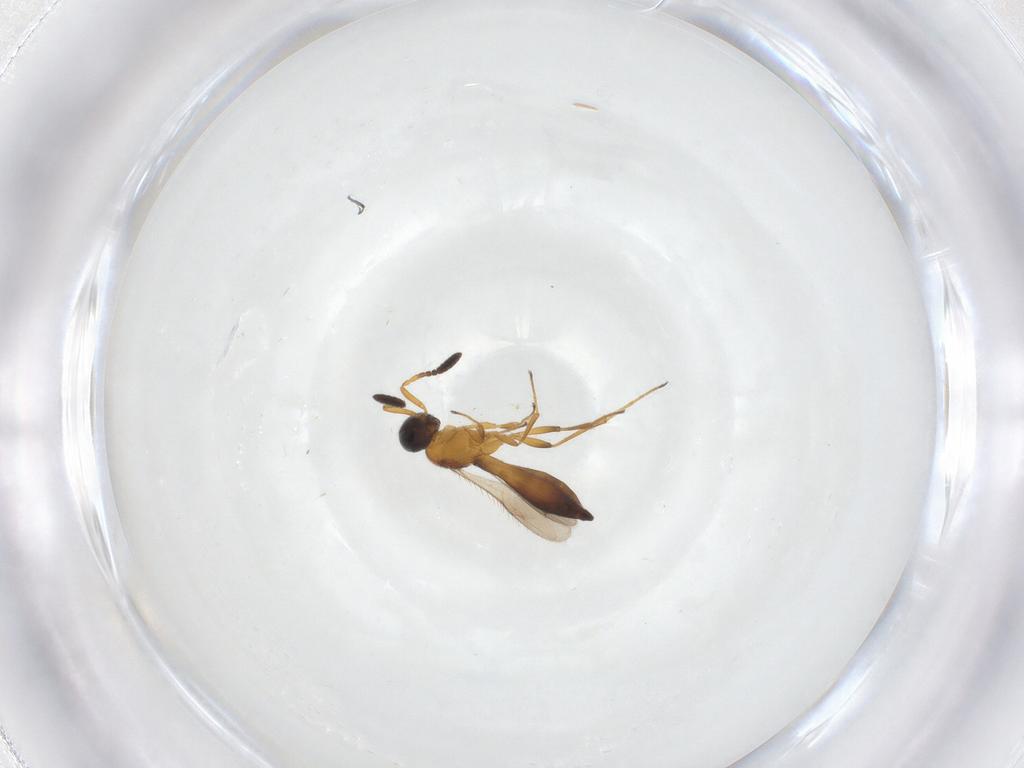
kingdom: Animalia
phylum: Arthropoda
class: Insecta
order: Hymenoptera
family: Scelionidae
